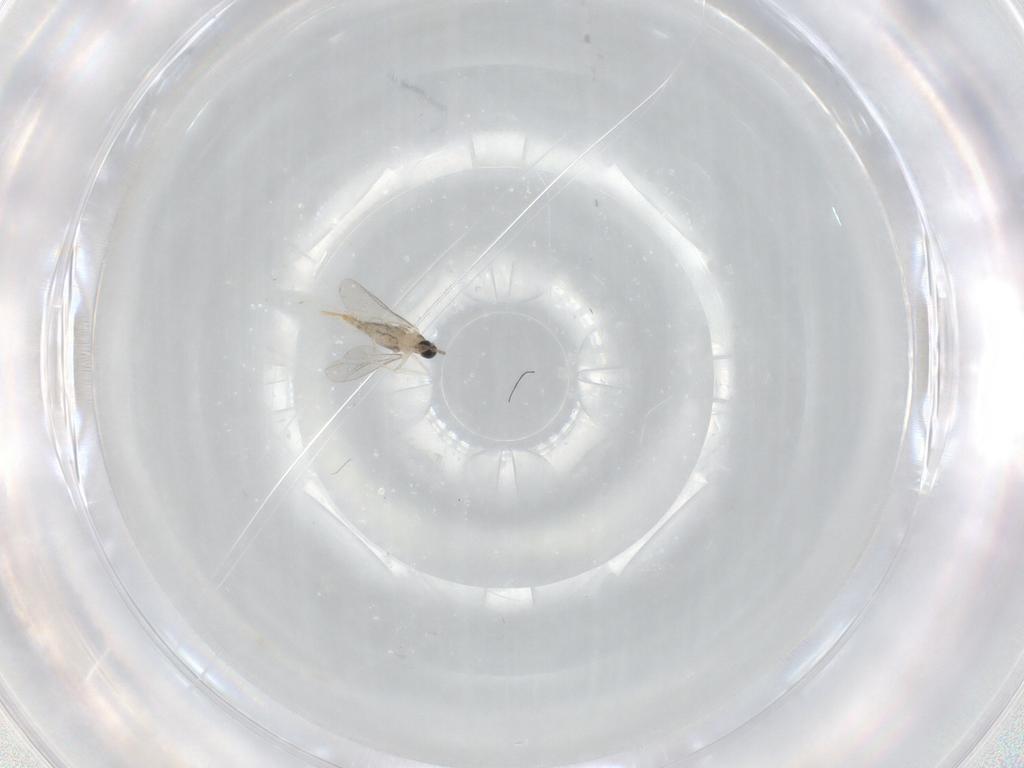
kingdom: Animalia
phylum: Arthropoda
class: Insecta
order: Diptera
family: Cecidomyiidae
